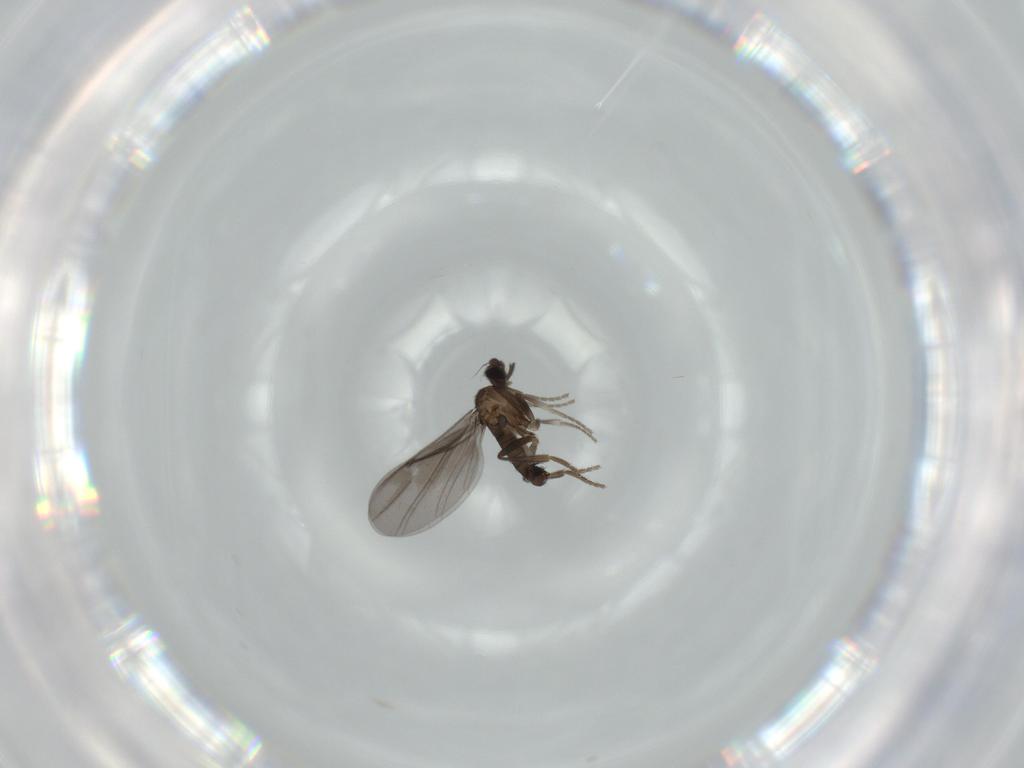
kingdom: Animalia
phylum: Arthropoda
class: Insecta
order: Diptera
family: Phoridae
